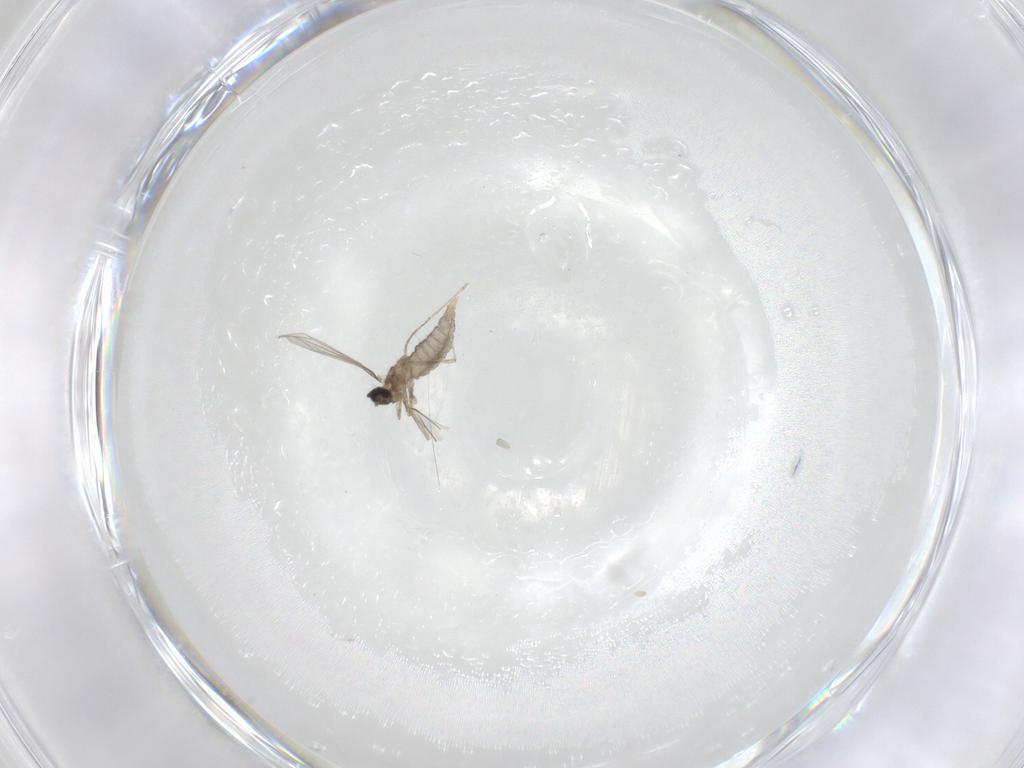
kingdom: Animalia
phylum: Arthropoda
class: Insecta
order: Diptera
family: Cecidomyiidae
